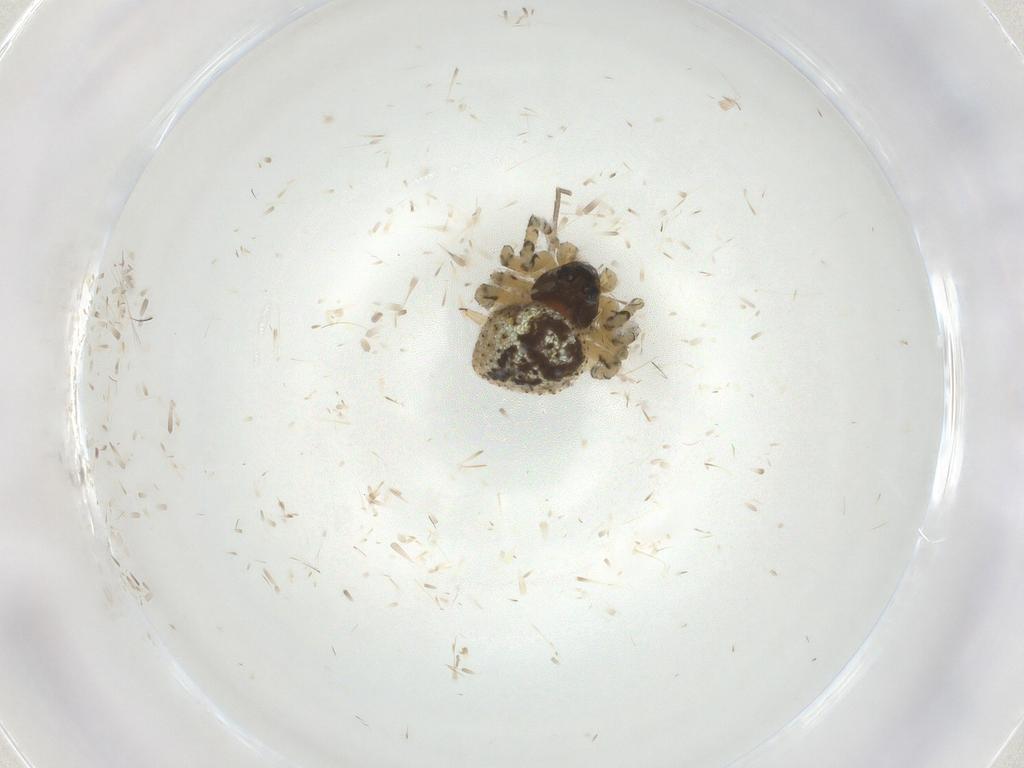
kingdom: Animalia
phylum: Arthropoda
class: Arachnida
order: Araneae
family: Theridiidae
